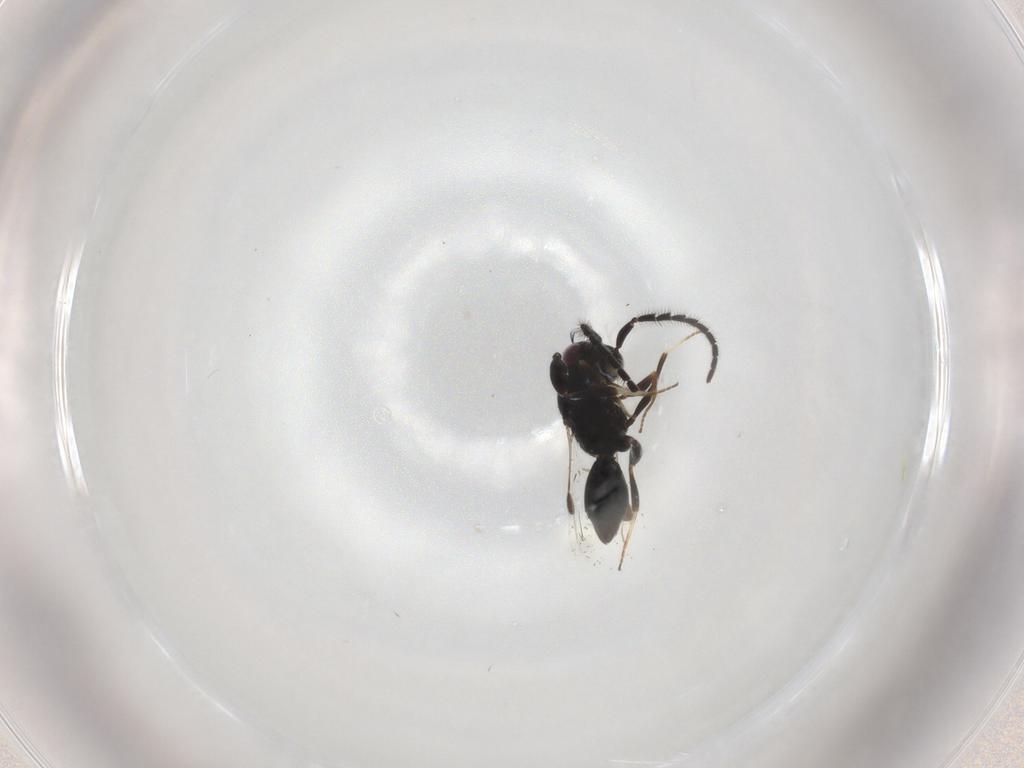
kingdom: Animalia
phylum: Arthropoda
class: Insecta
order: Hymenoptera
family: Megaspilidae
